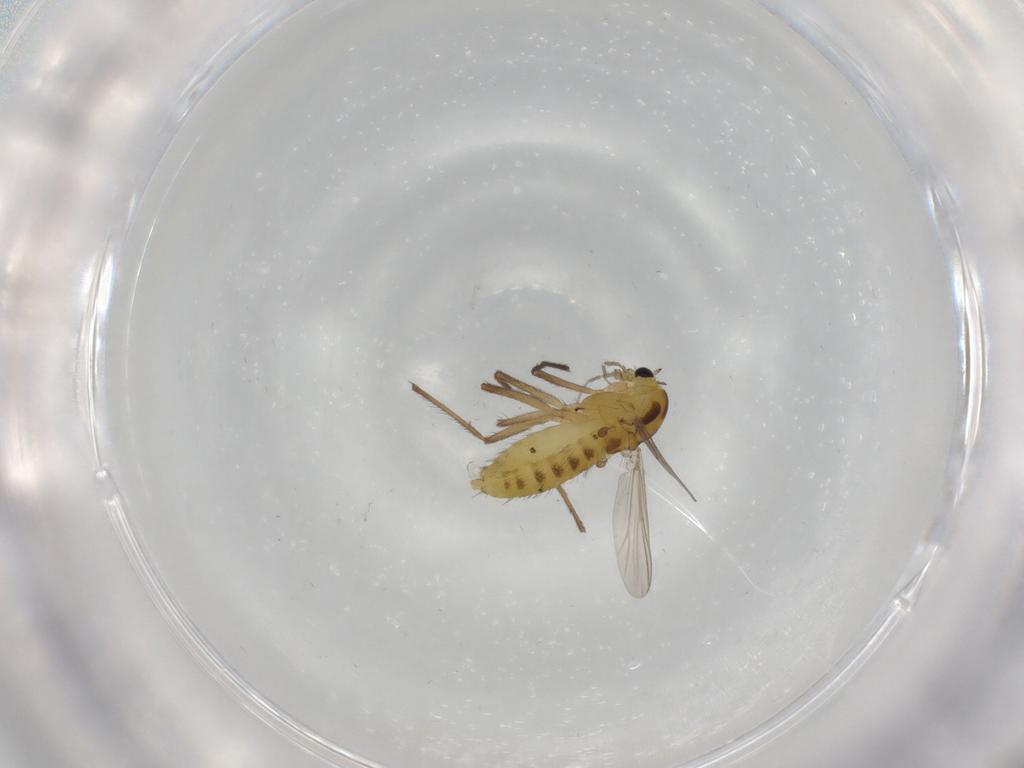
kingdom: Animalia
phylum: Arthropoda
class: Insecta
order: Diptera
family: Chironomidae
